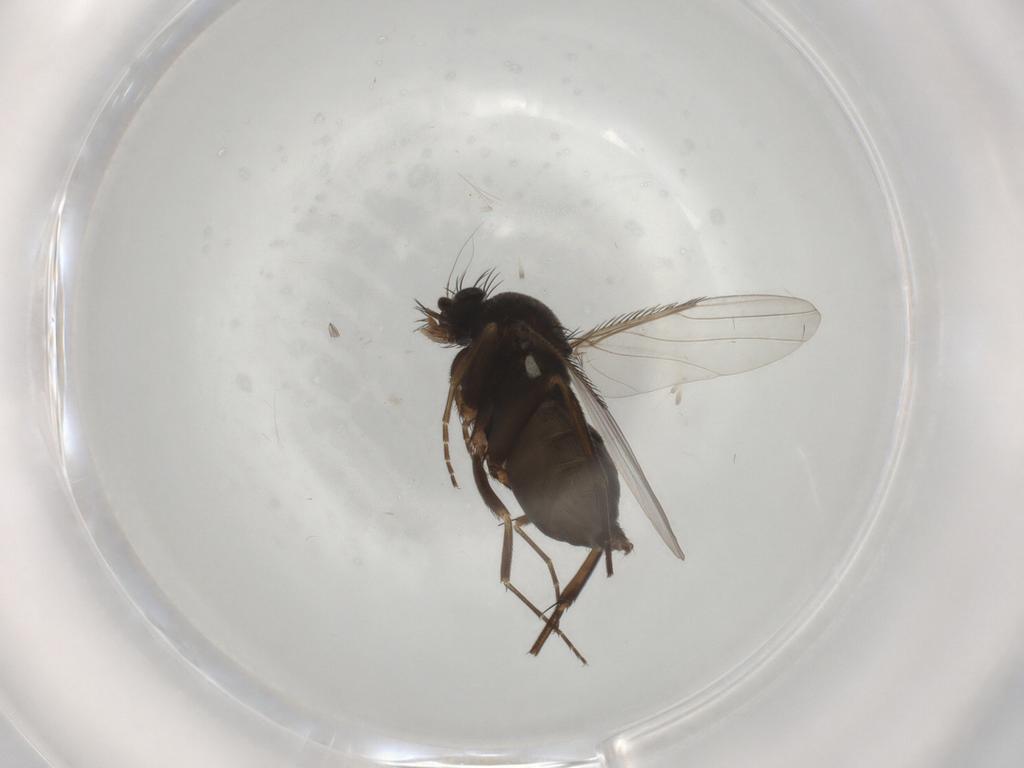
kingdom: Animalia
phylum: Arthropoda
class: Insecta
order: Diptera
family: Phoridae
